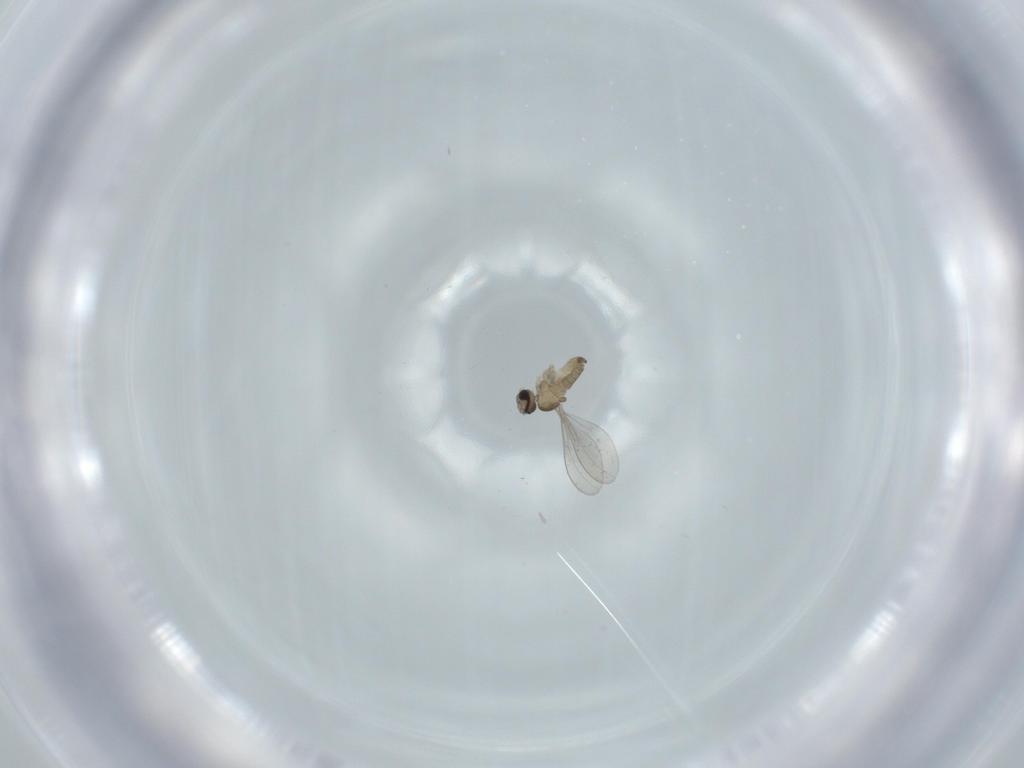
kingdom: Animalia
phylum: Arthropoda
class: Insecta
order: Diptera
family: Cecidomyiidae
